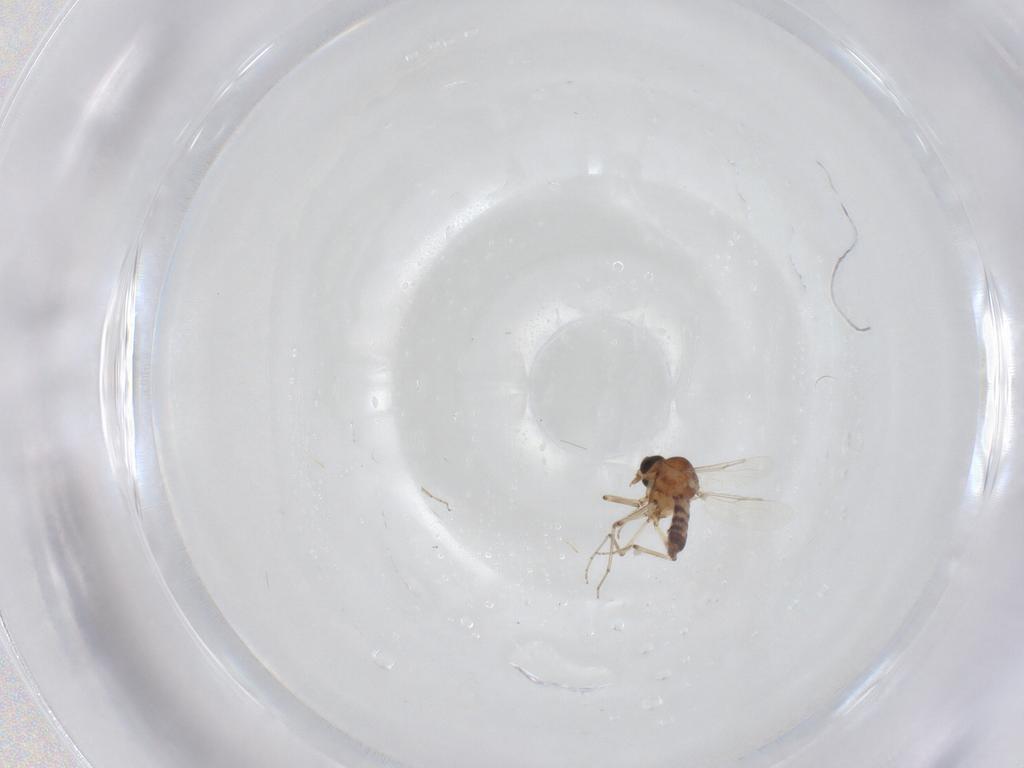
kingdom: Animalia
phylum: Arthropoda
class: Insecta
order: Diptera
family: Ceratopogonidae
